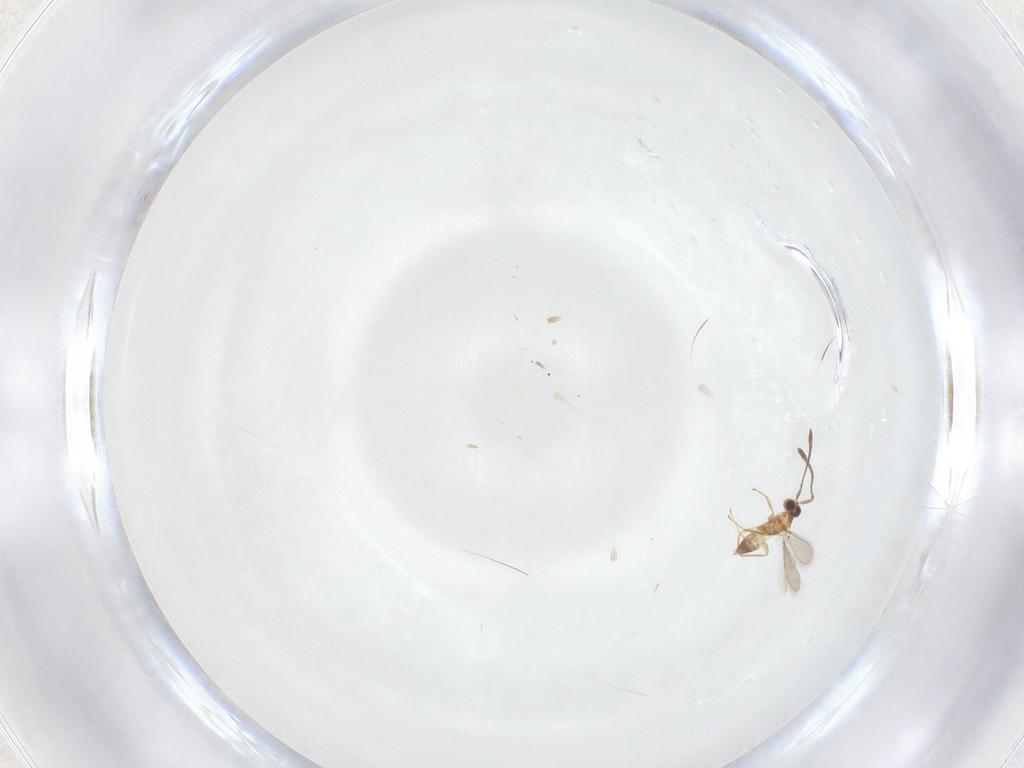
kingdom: Animalia
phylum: Arthropoda
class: Insecta
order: Hymenoptera
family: Mymaridae
